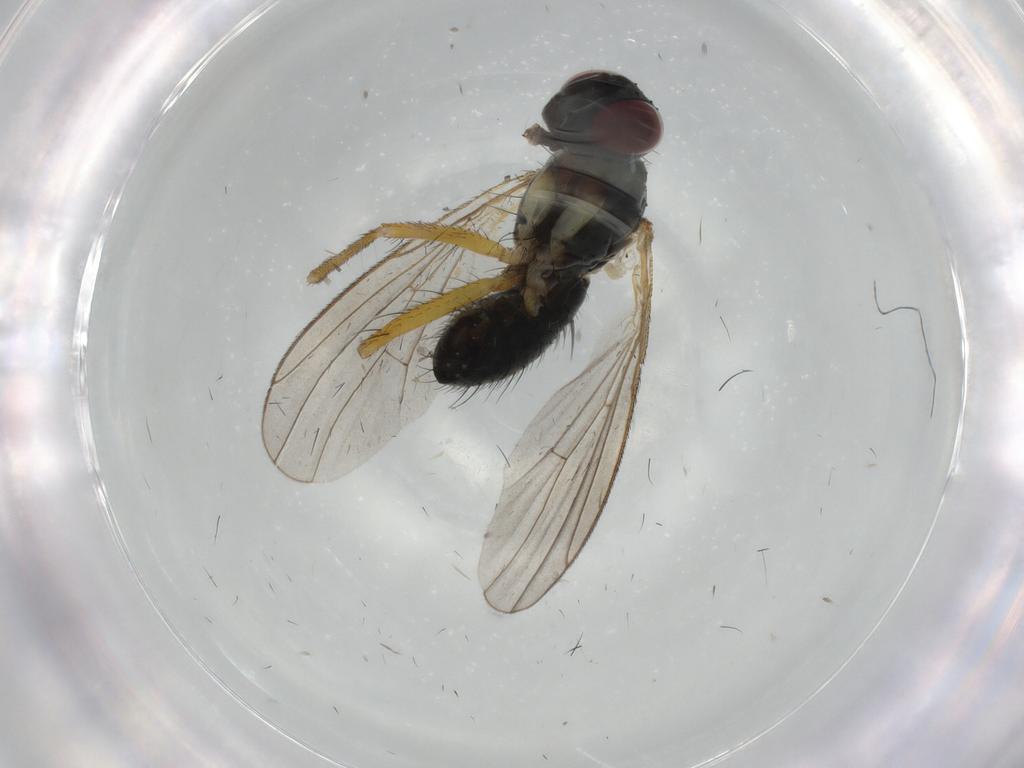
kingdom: Animalia
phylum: Arthropoda
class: Insecta
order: Diptera
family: Muscidae
